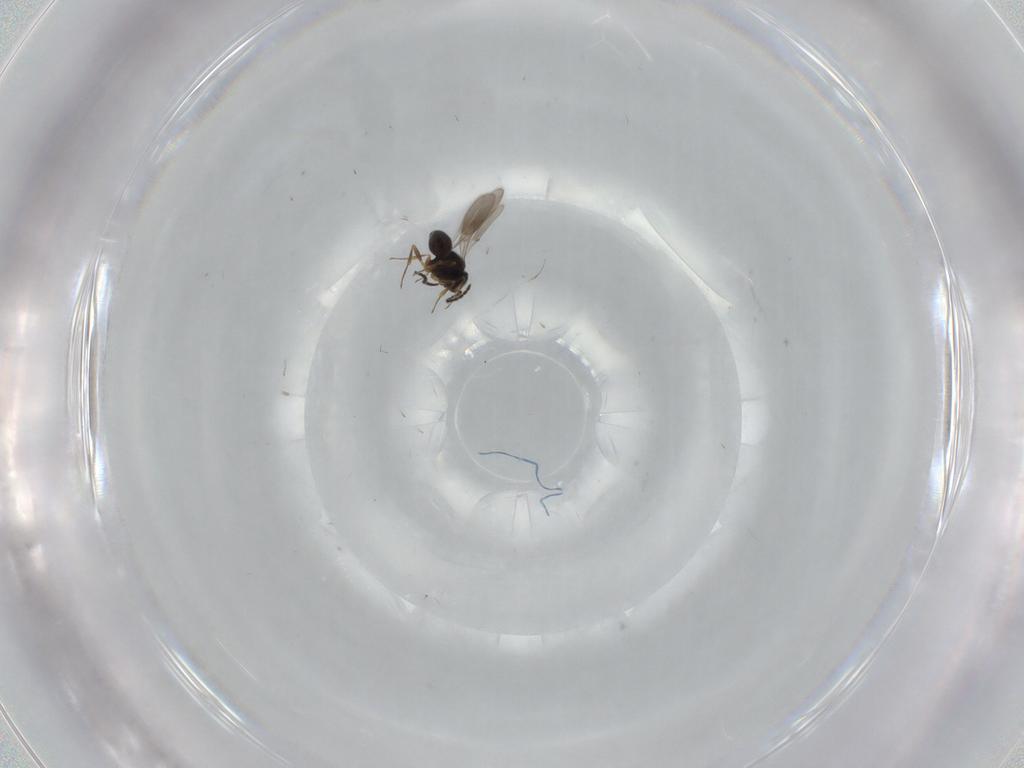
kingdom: Animalia
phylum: Arthropoda
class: Insecta
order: Hymenoptera
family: Scelionidae
